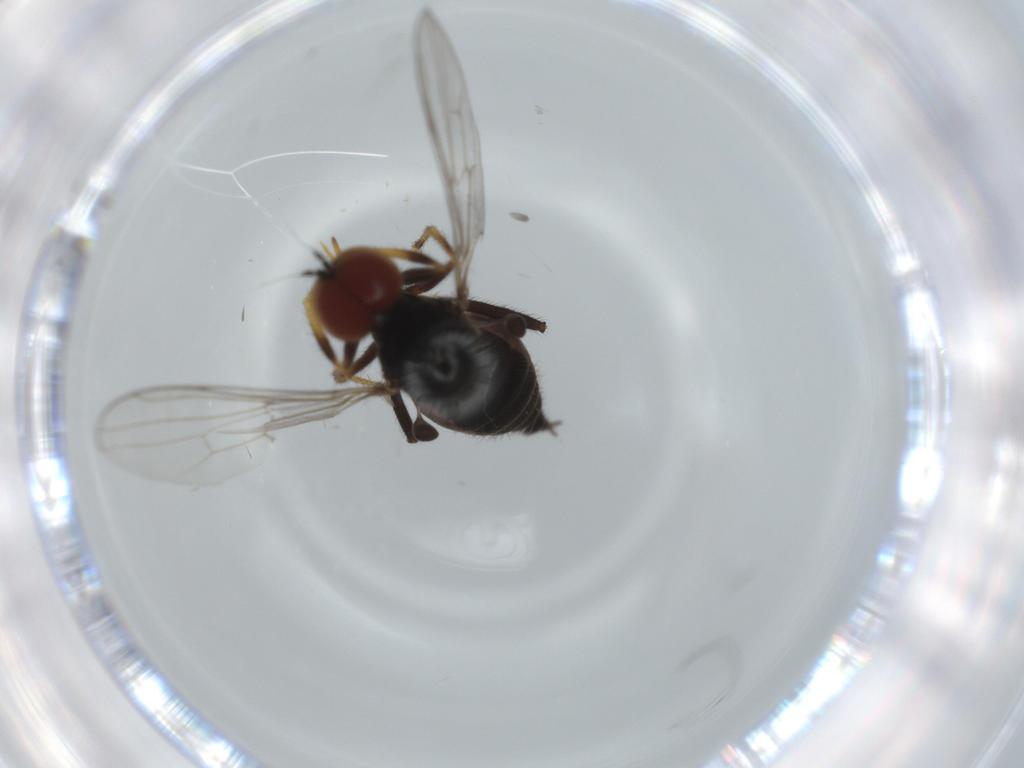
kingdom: Animalia
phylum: Arthropoda
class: Insecta
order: Diptera
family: Hybotidae
